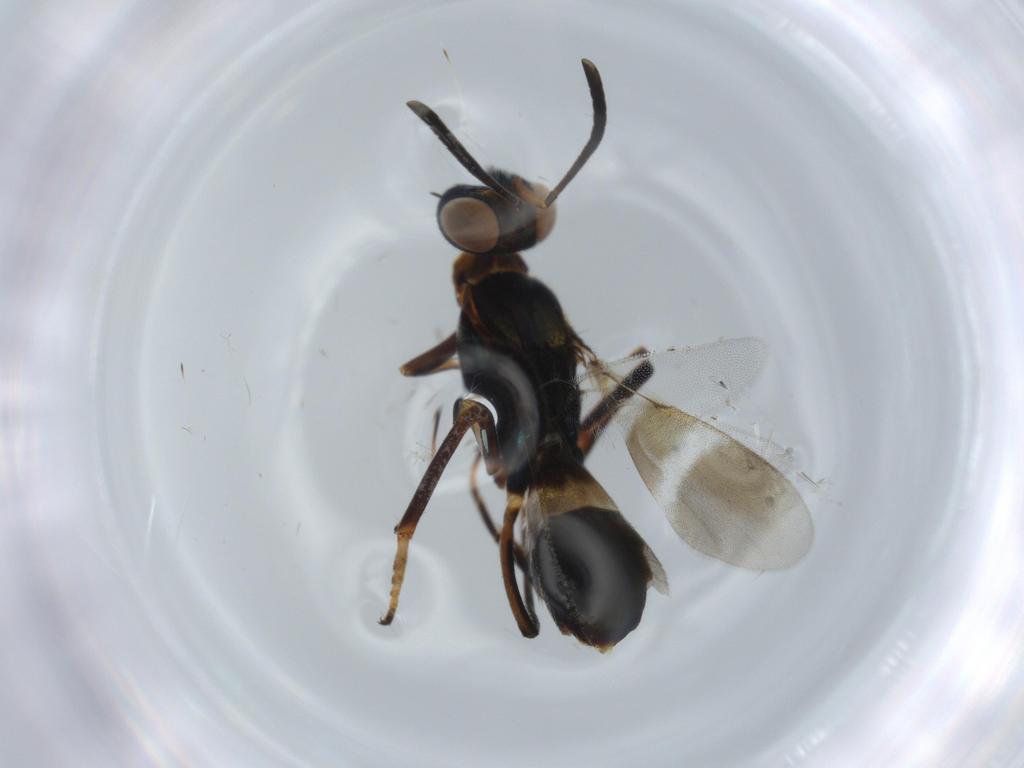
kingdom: Animalia
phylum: Arthropoda
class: Insecta
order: Hymenoptera
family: Eupelmidae
